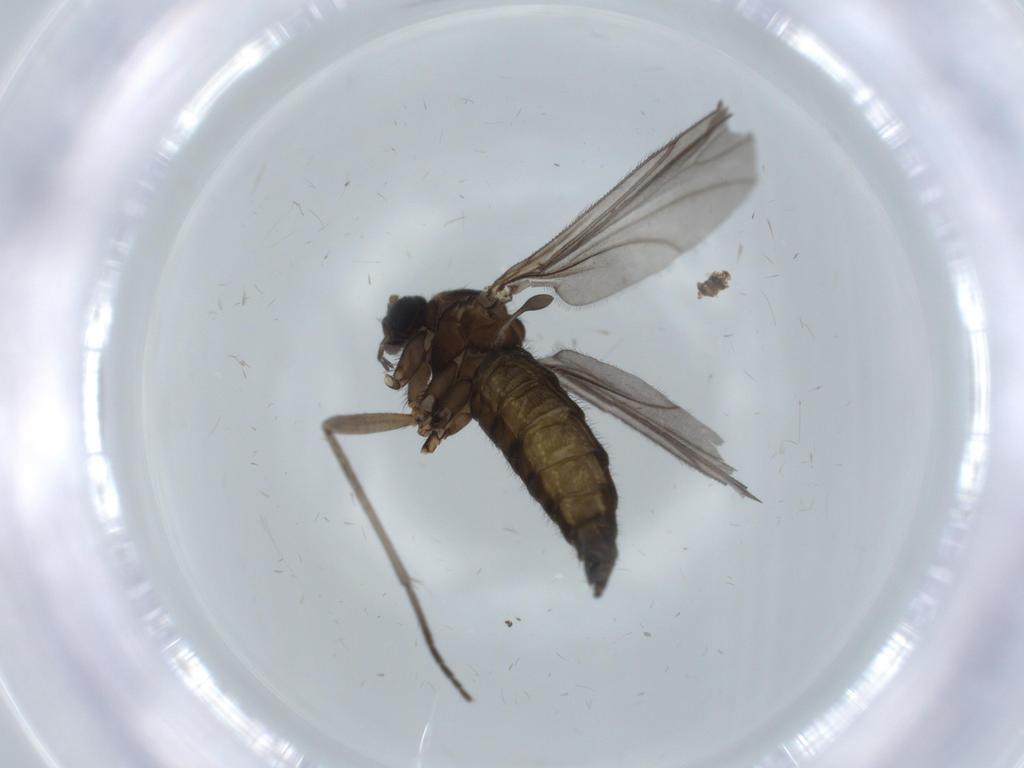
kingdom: Animalia
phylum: Arthropoda
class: Insecta
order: Diptera
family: Sciaridae
